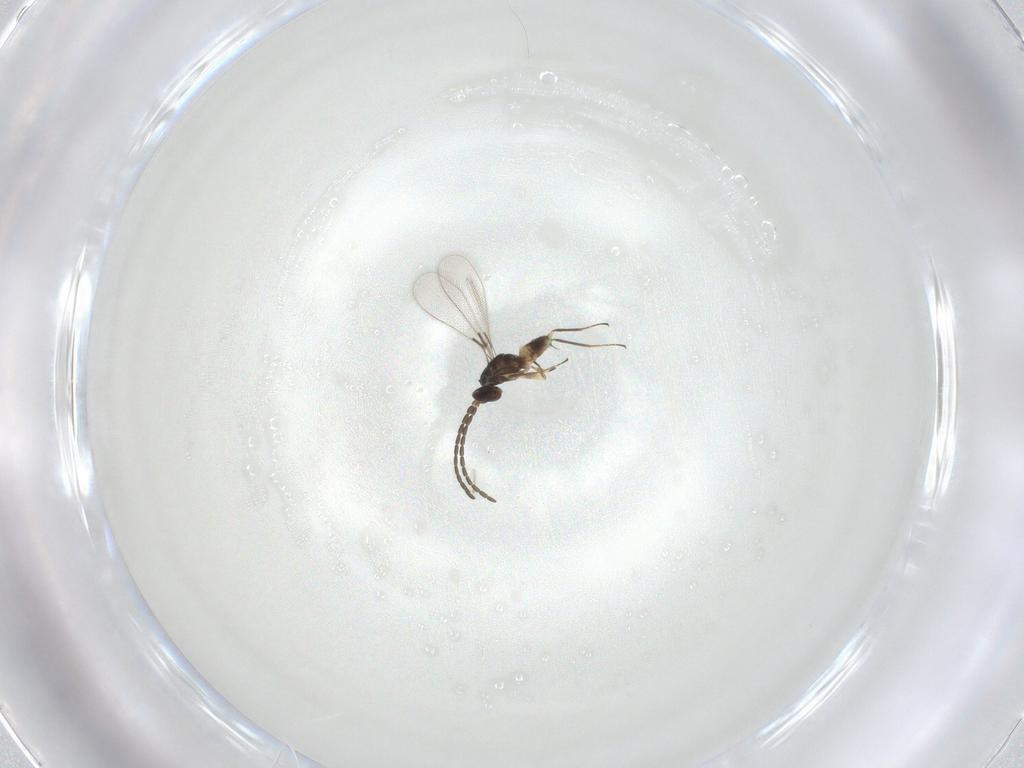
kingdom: Animalia
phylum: Arthropoda
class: Insecta
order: Hymenoptera
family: Mymaridae
